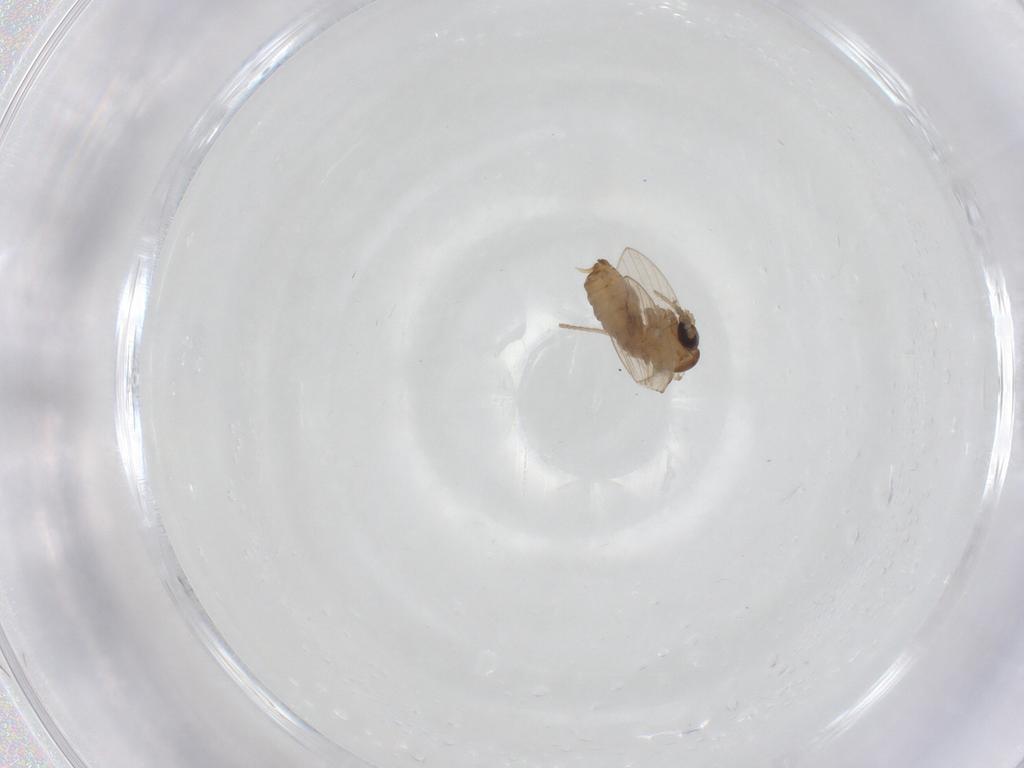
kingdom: Animalia
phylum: Arthropoda
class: Insecta
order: Diptera
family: Psychodidae
